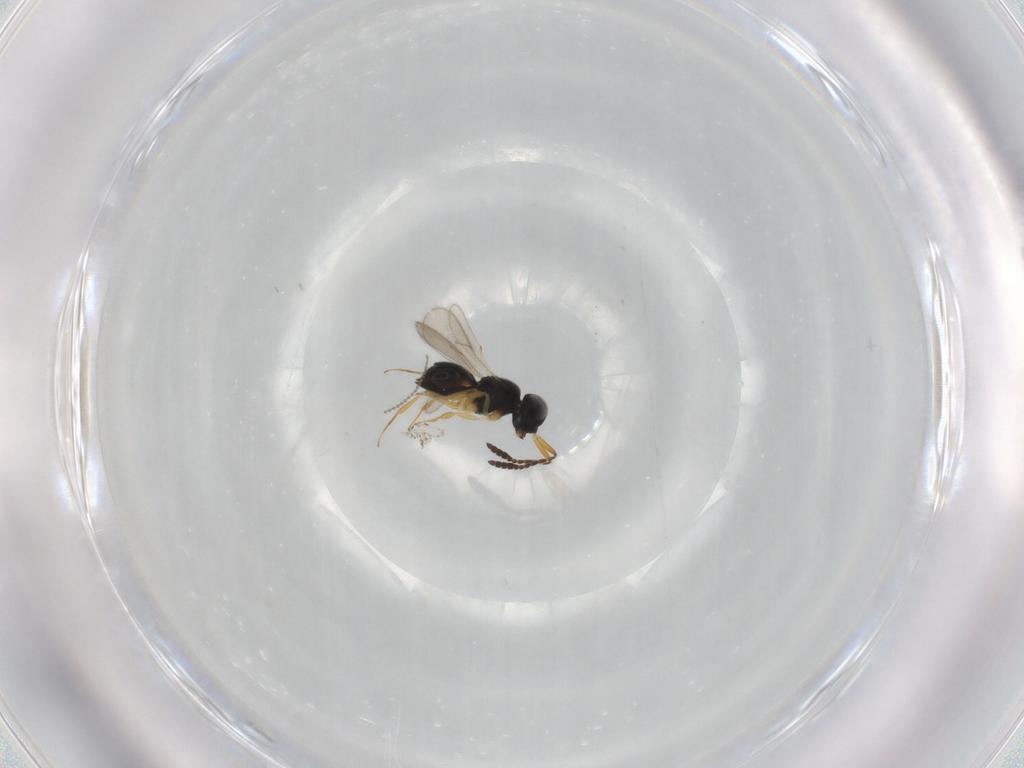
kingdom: Animalia
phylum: Arthropoda
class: Insecta
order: Hymenoptera
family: Scelionidae
